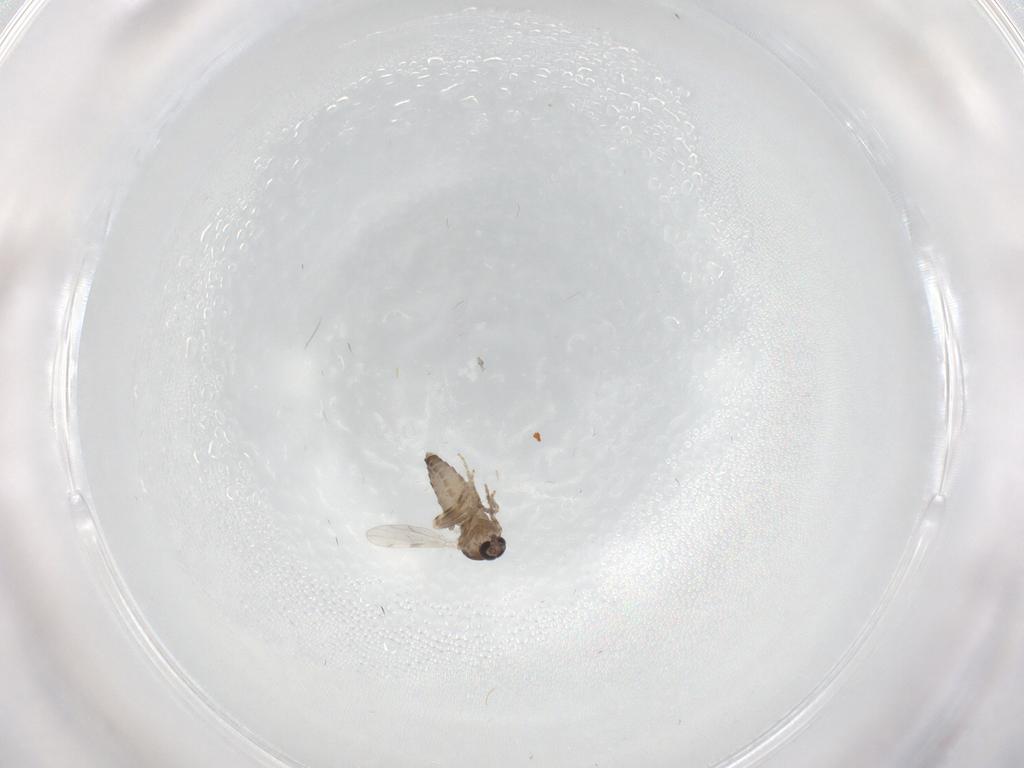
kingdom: Animalia
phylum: Arthropoda
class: Insecta
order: Diptera
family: Ceratopogonidae
